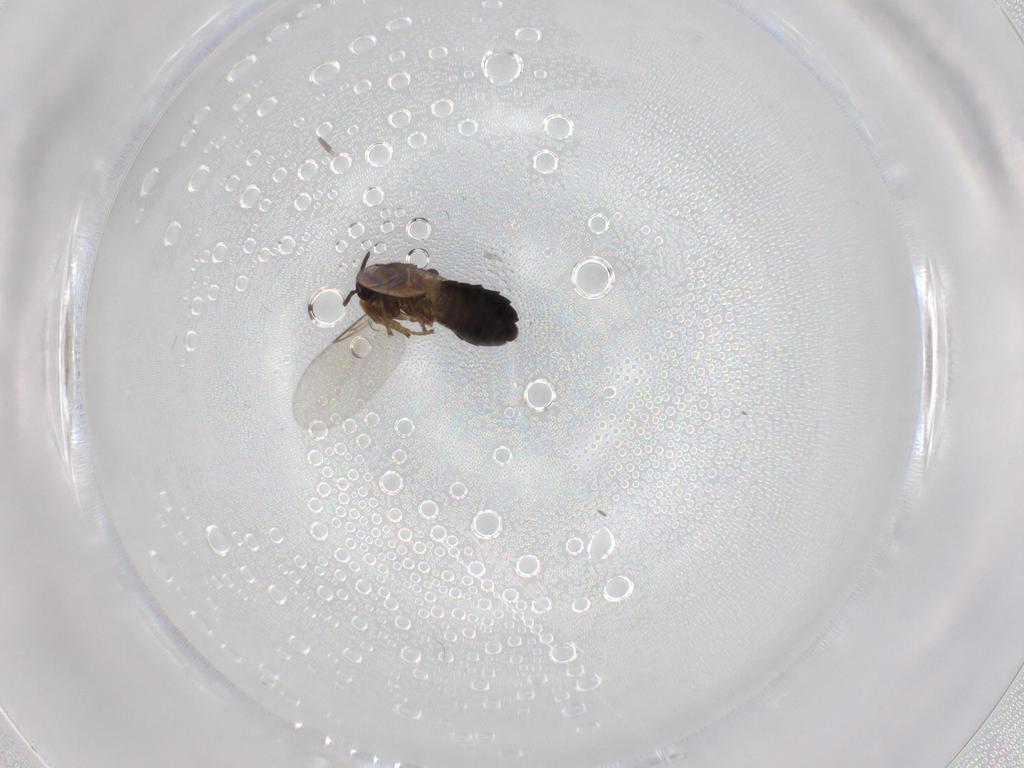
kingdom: Animalia
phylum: Arthropoda
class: Insecta
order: Diptera
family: Scatopsidae
